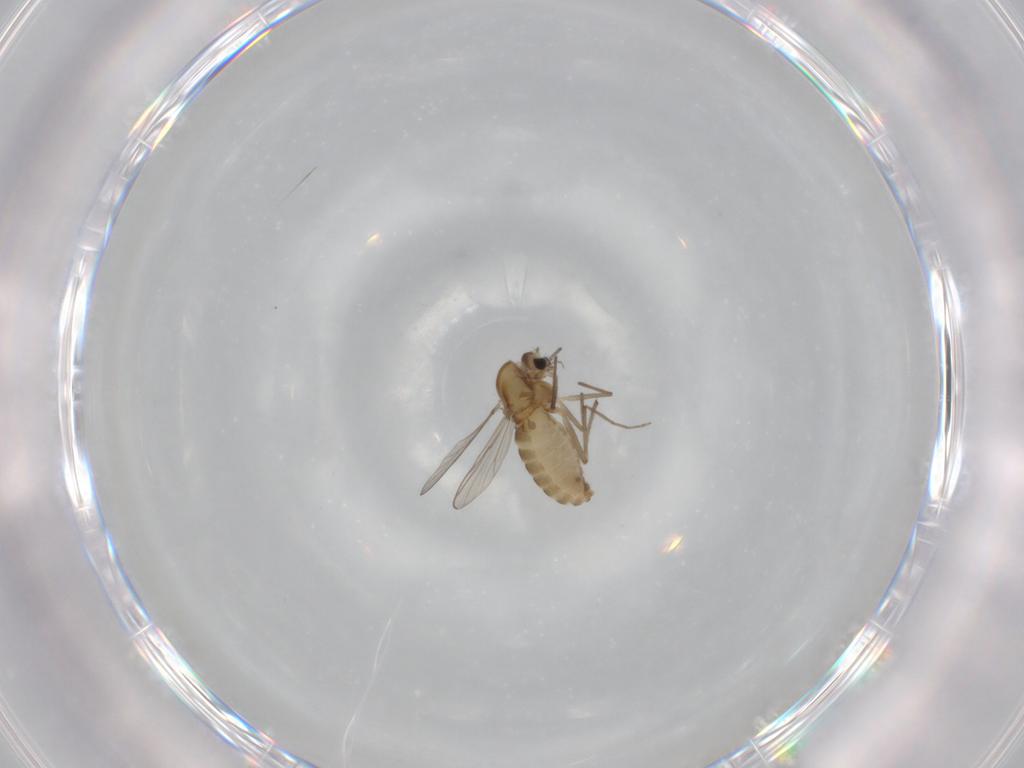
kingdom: Animalia
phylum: Arthropoda
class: Insecta
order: Diptera
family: Chironomidae
